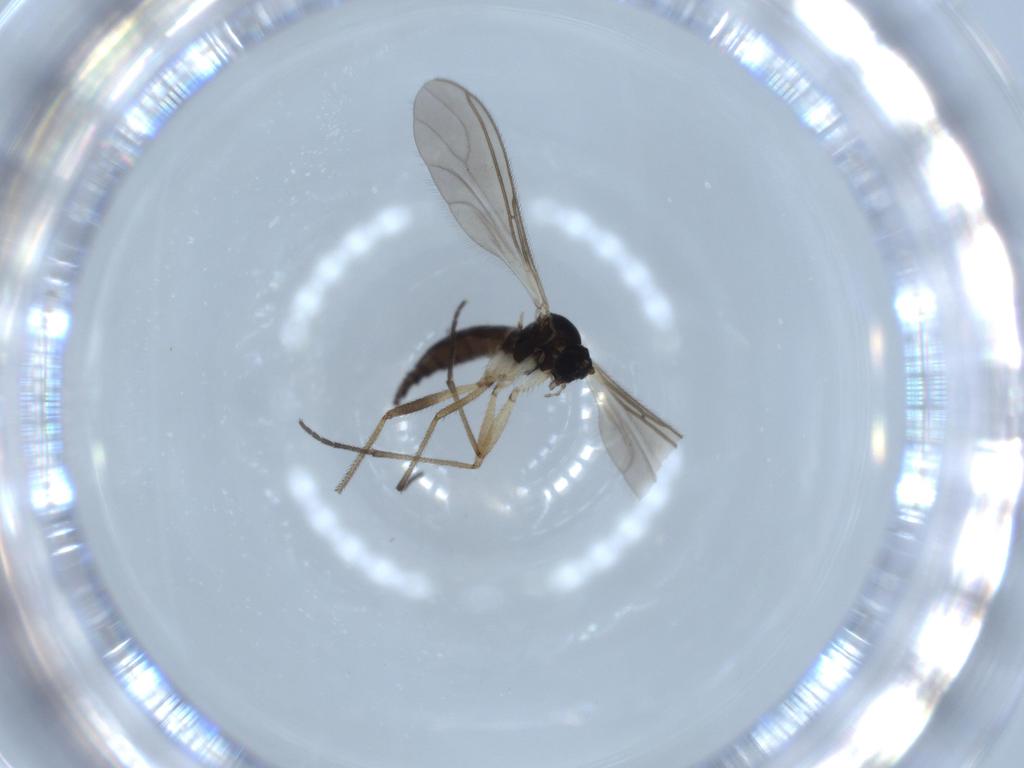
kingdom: Animalia
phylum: Arthropoda
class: Insecta
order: Diptera
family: Sciaridae
